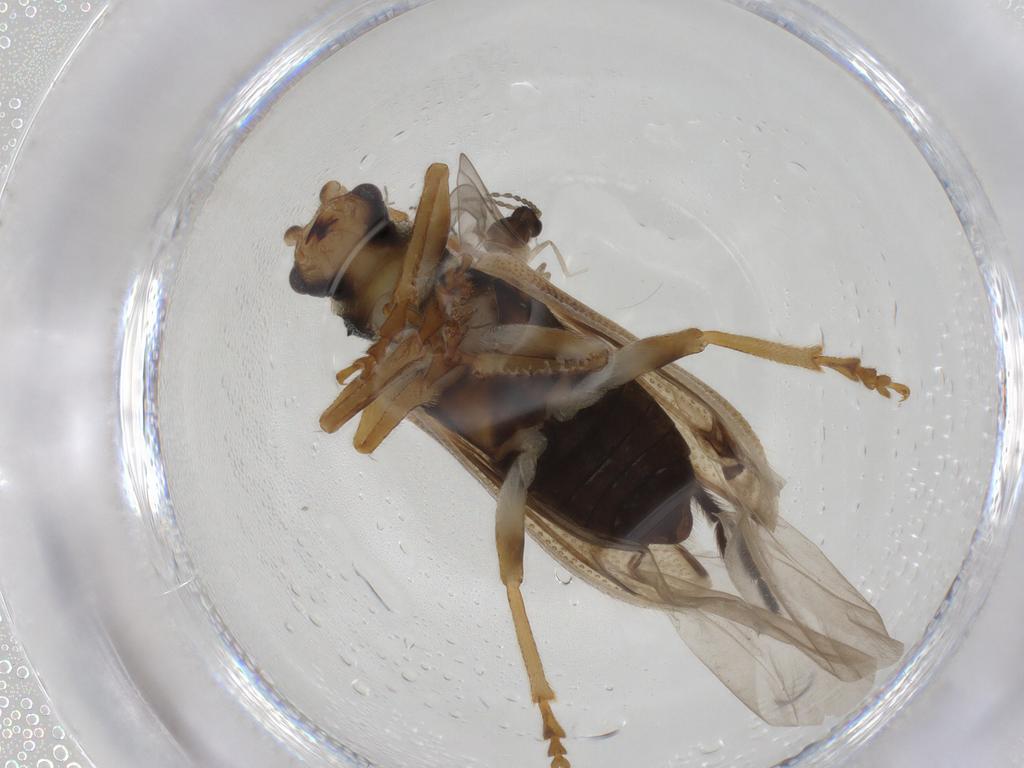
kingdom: Animalia
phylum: Arthropoda
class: Insecta
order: Coleoptera
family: Chrysomelidae
